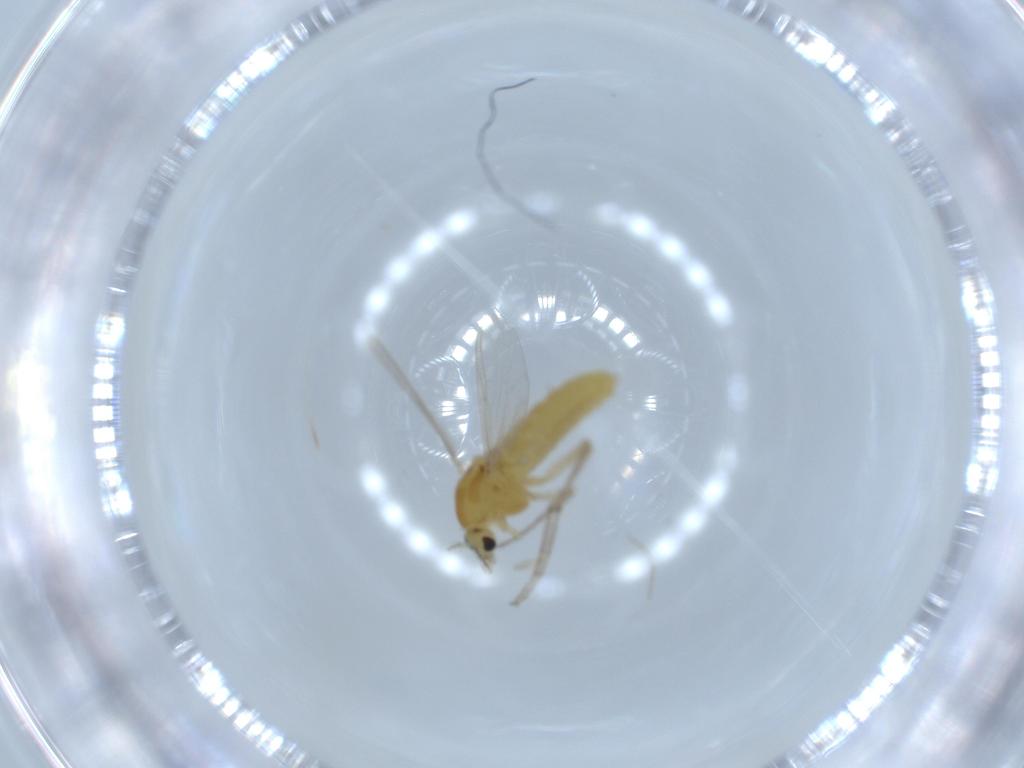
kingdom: Animalia
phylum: Arthropoda
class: Insecta
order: Diptera
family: Chironomidae
